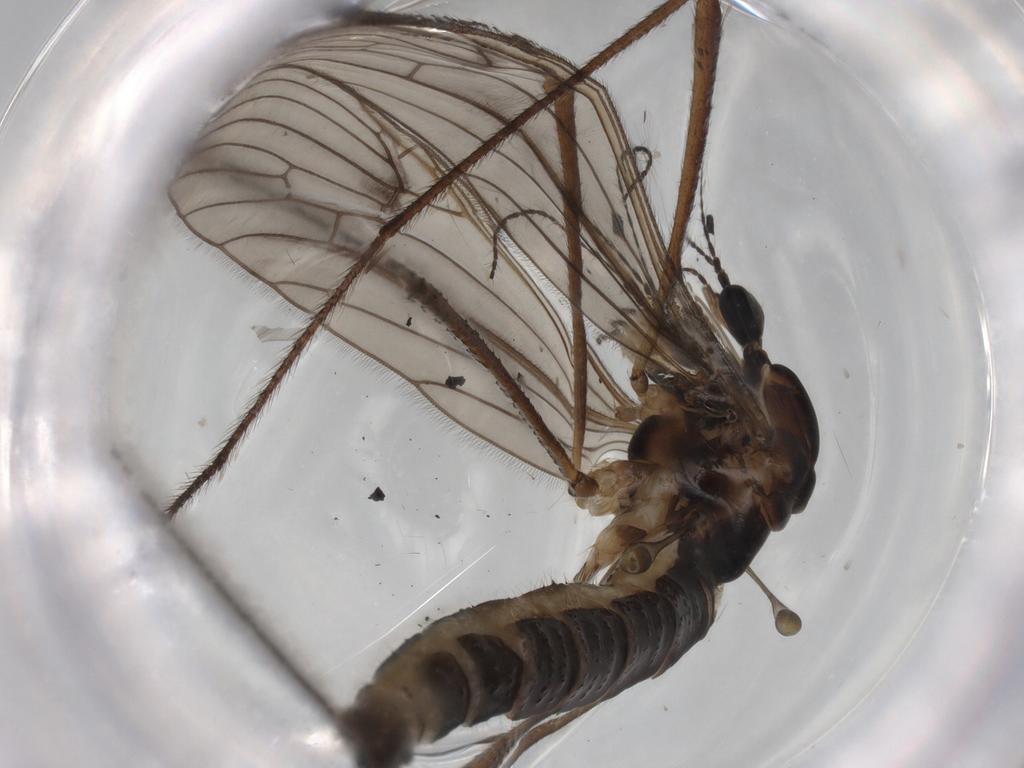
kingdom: Animalia
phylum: Arthropoda
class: Insecta
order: Diptera
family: Limoniidae
